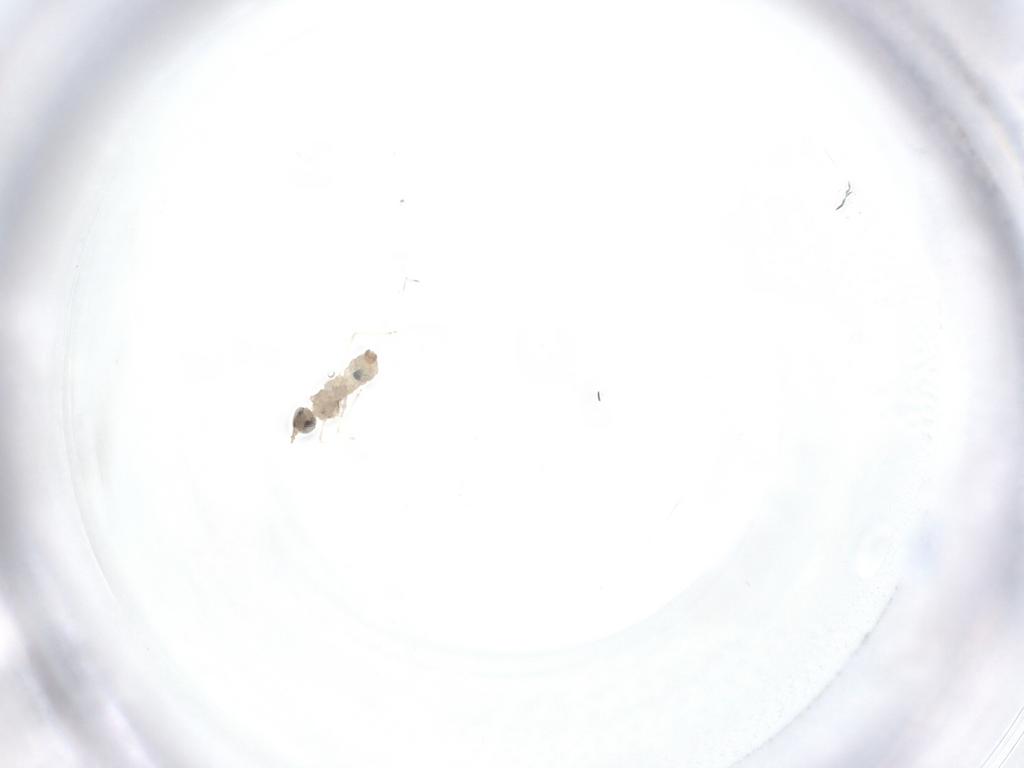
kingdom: Animalia
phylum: Arthropoda
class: Insecta
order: Diptera
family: Cecidomyiidae
